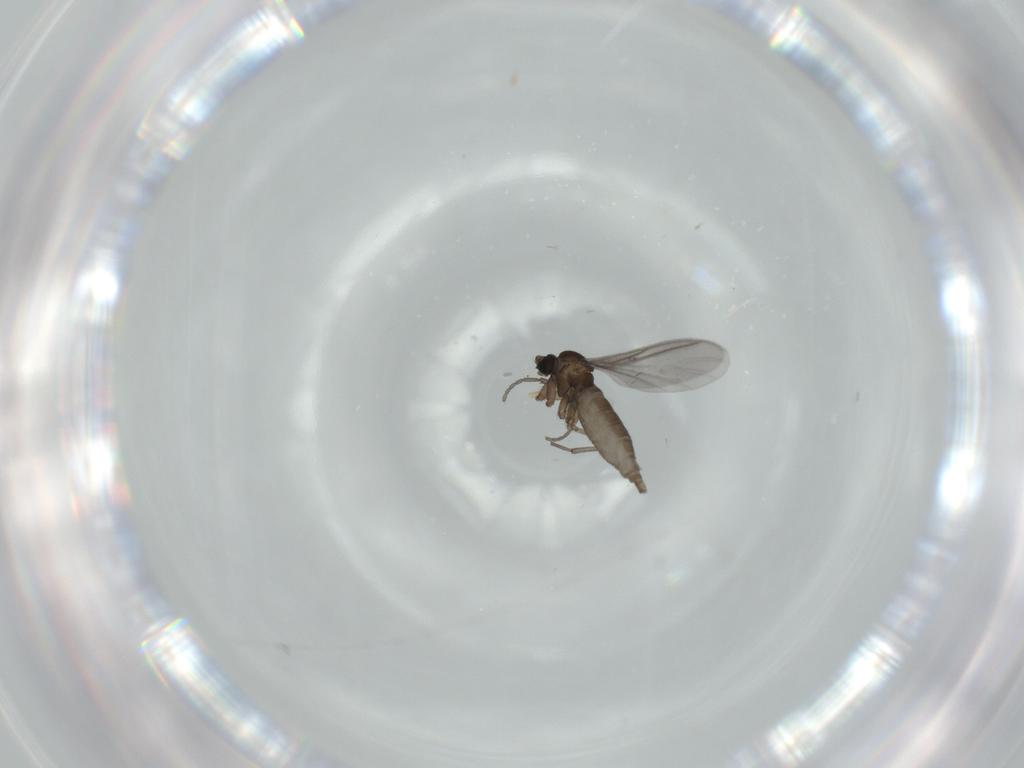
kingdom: Animalia
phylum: Arthropoda
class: Insecta
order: Diptera
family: Sciaridae
